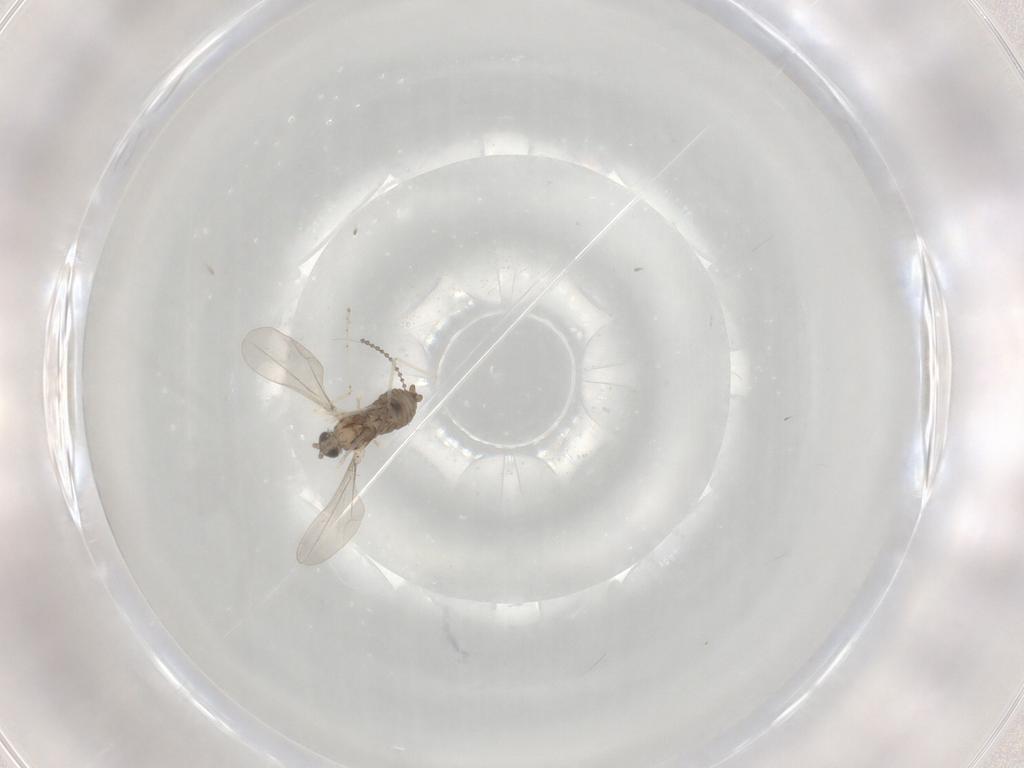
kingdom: Animalia
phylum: Arthropoda
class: Insecta
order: Diptera
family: Cecidomyiidae
